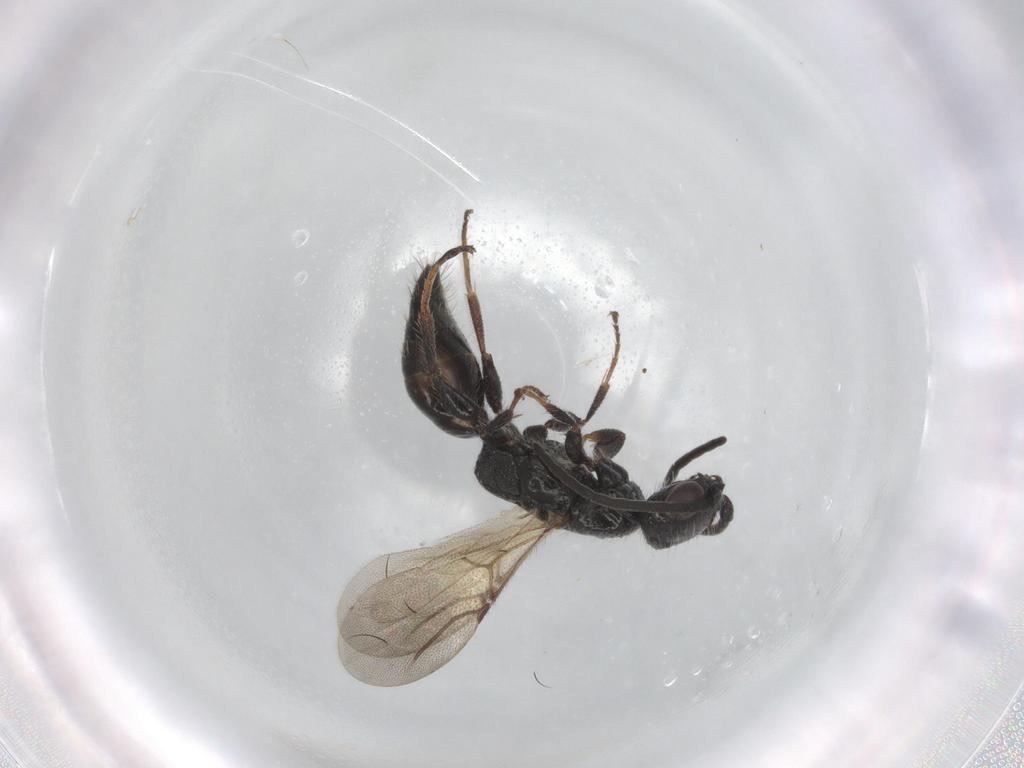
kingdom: Animalia
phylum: Arthropoda
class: Insecta
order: Hymenoptera
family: Bethylidae
